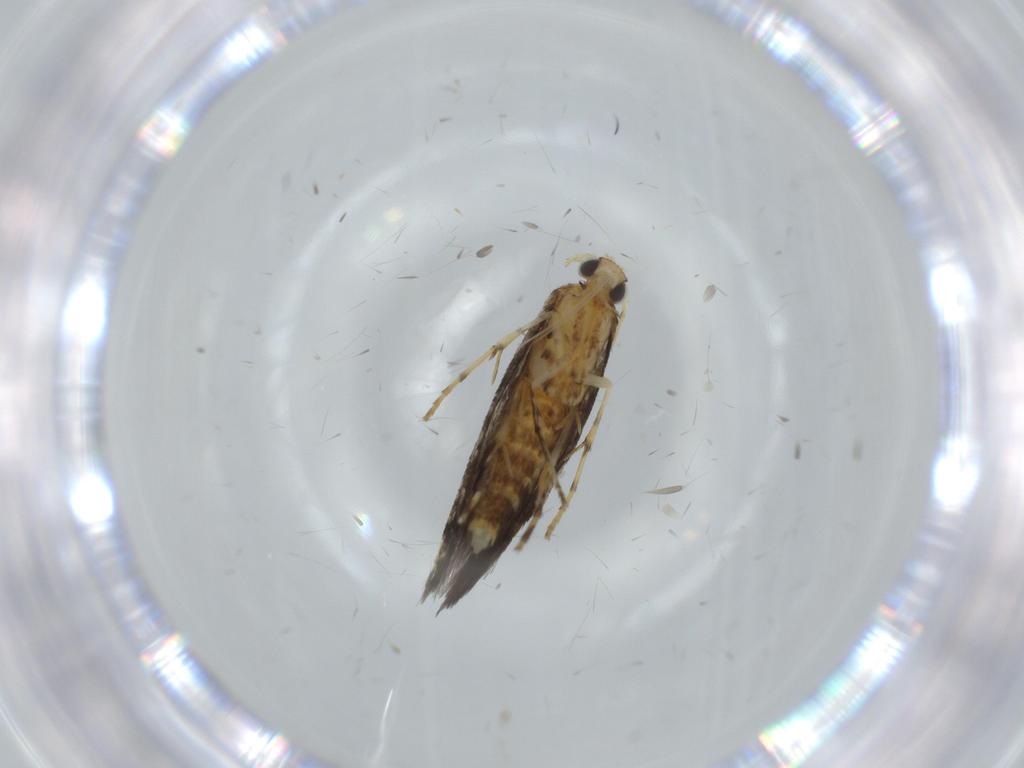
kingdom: Animalia
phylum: Arthropoda
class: Insecta
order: Lepidoptera
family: Argyresthiidae
